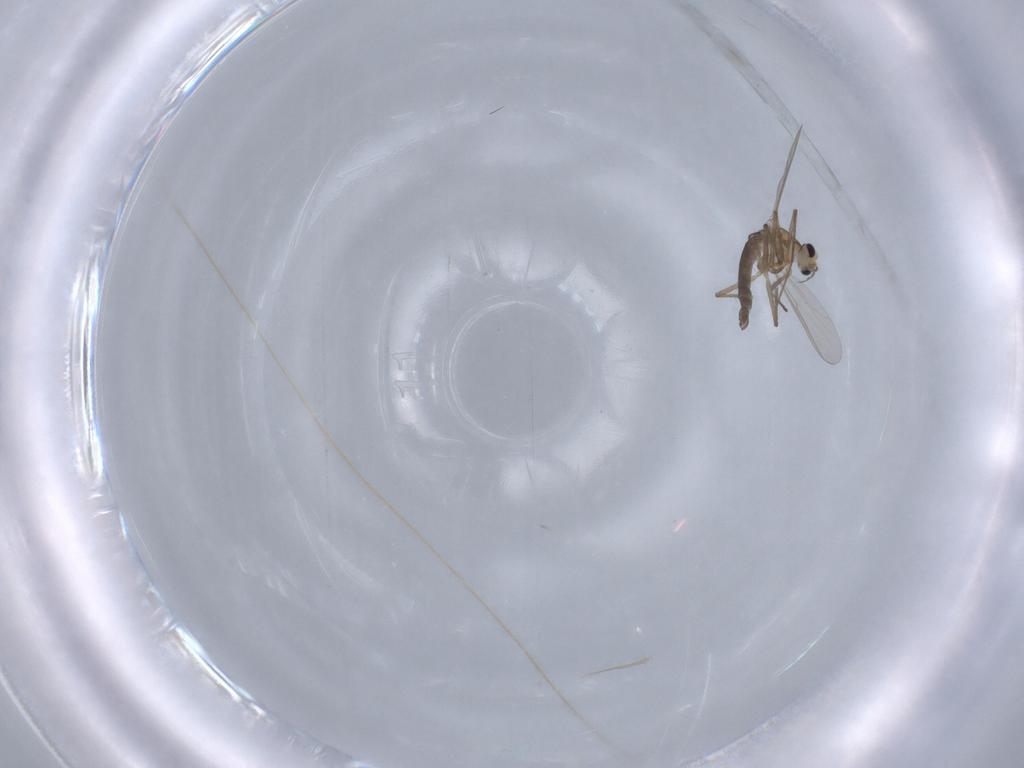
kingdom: Animalia
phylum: Arthropoda
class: Insecta
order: Diptera
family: Chironomidae
